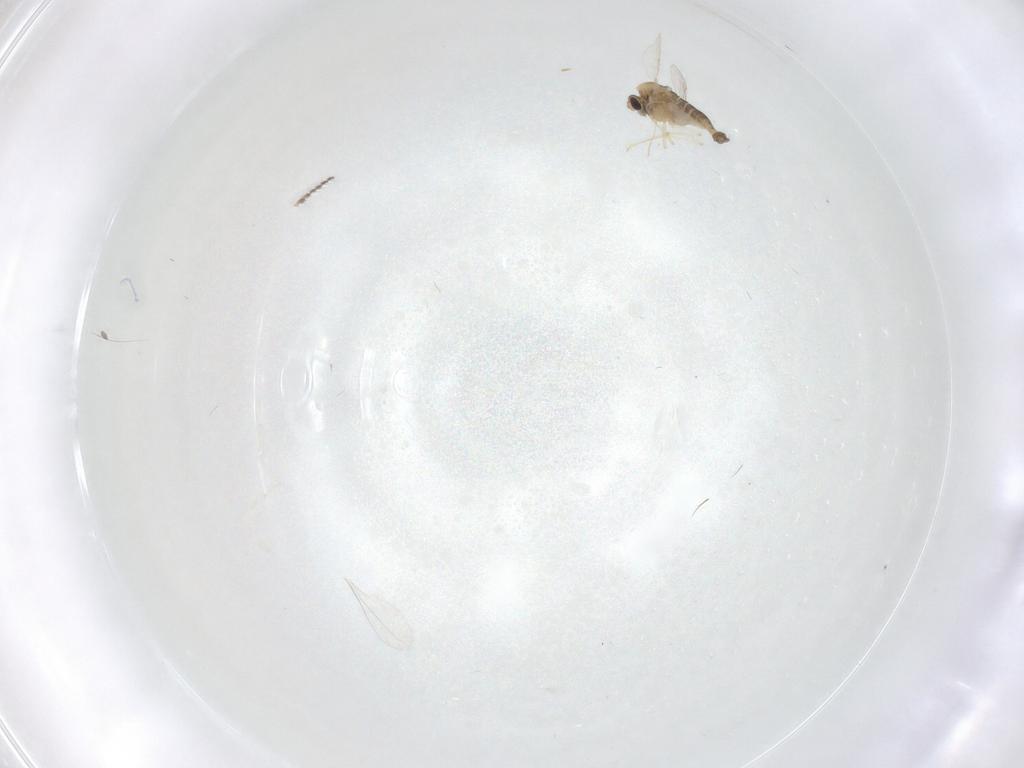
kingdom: Animalia
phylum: Arthropoda
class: Insecta
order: Diptera
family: Chironomidae
